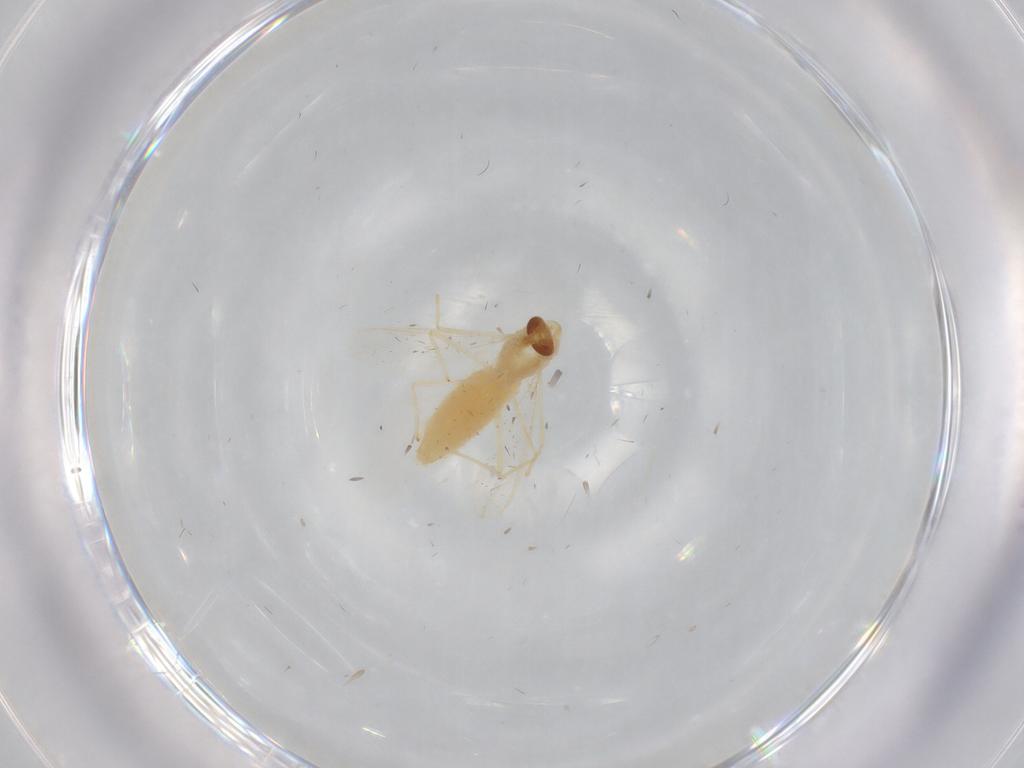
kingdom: Animalia
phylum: Arthropoda
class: Insecta
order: Diptera
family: Chironomidae
